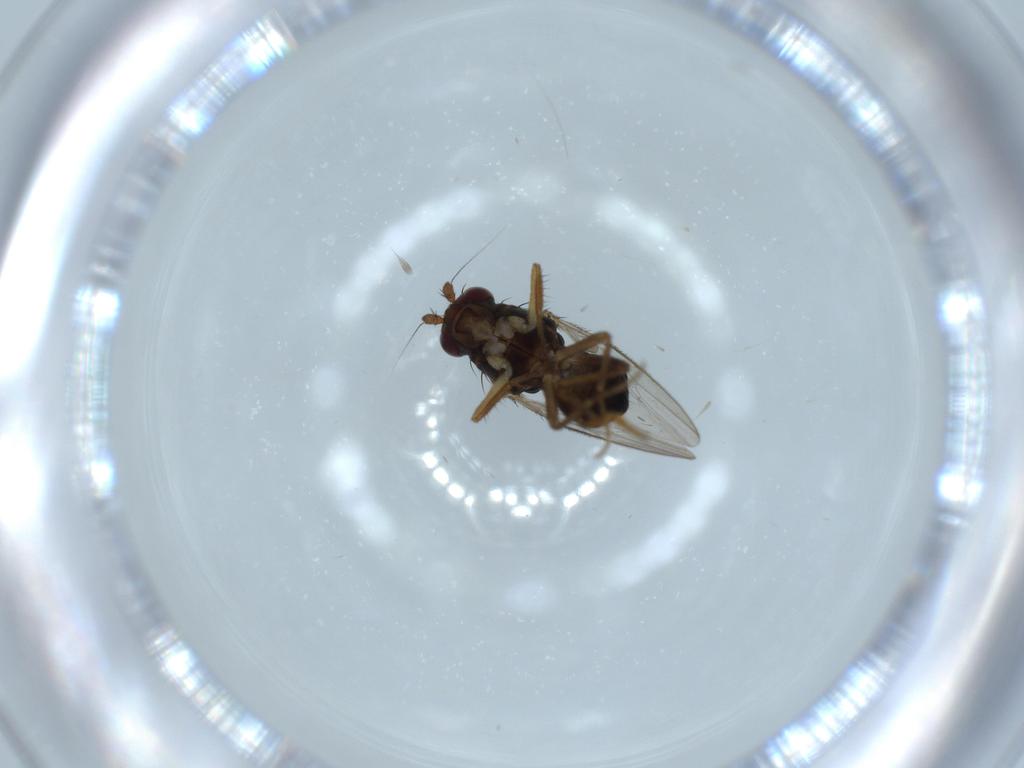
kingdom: Animalia
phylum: Arthropoda
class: Insecta
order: Diptera
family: Sphaeroceridae
